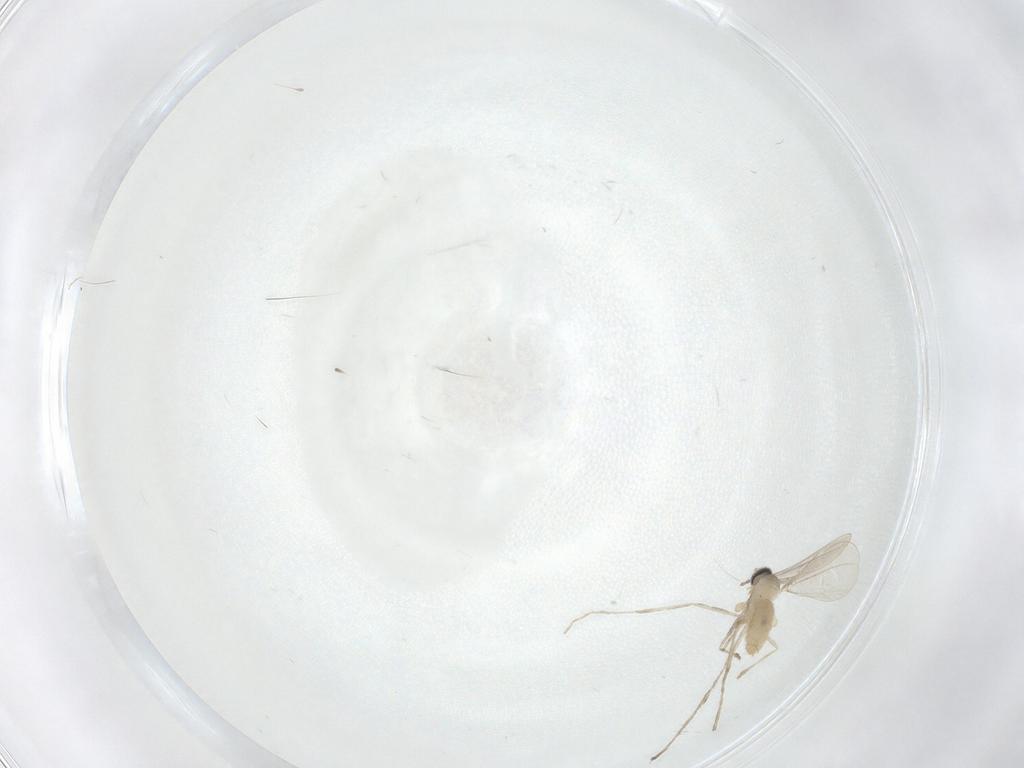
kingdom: Animalia
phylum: Arthropoda
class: Insecta
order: Diptera
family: Cecidomyiidae
